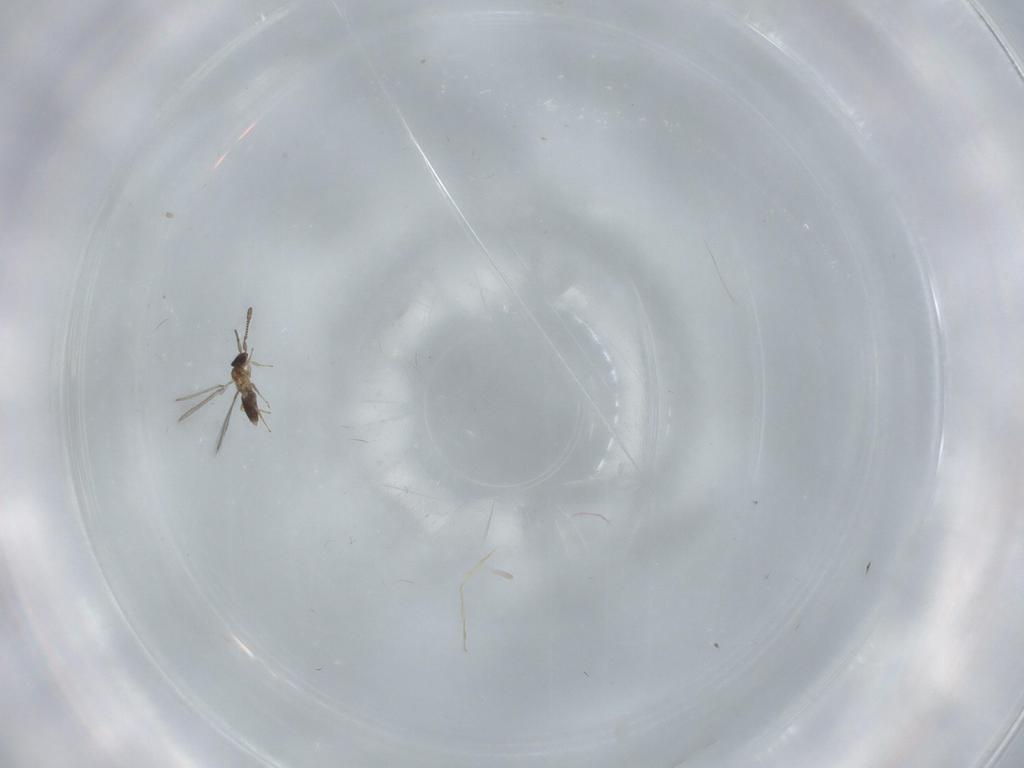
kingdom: Animalia
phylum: Arthropoda
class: Insecta
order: Hymenoptera
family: Mymaridae
